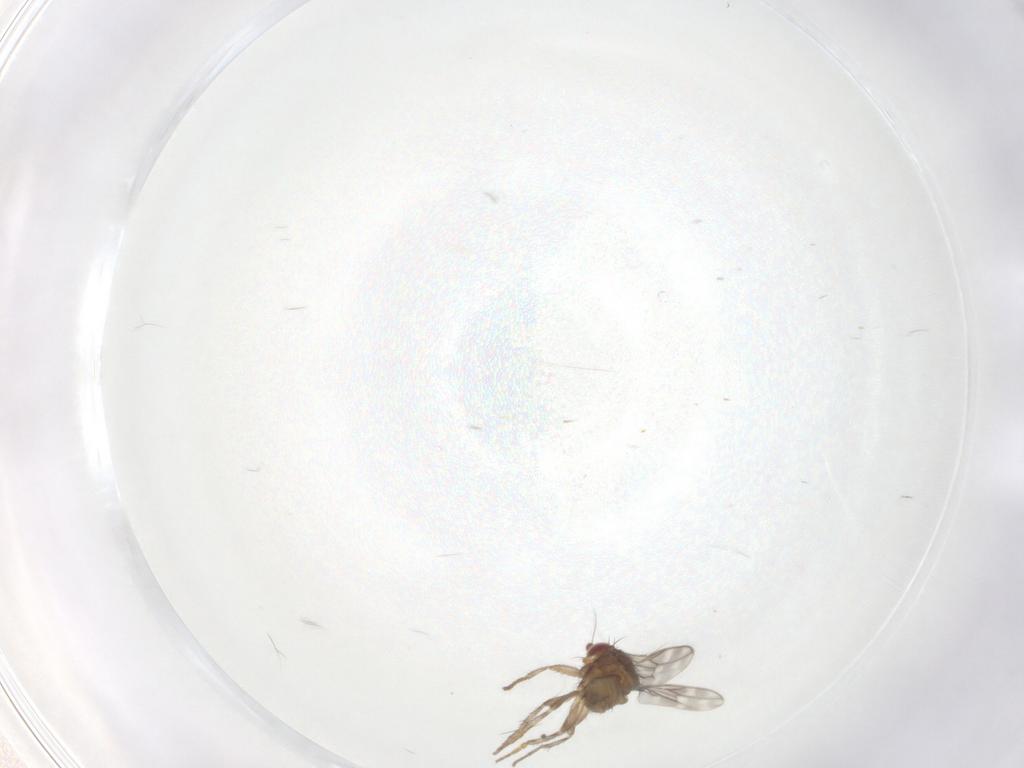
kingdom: Animalia
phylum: Arthropoda
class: Insecta
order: Diptera
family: Sphaeroceridae
